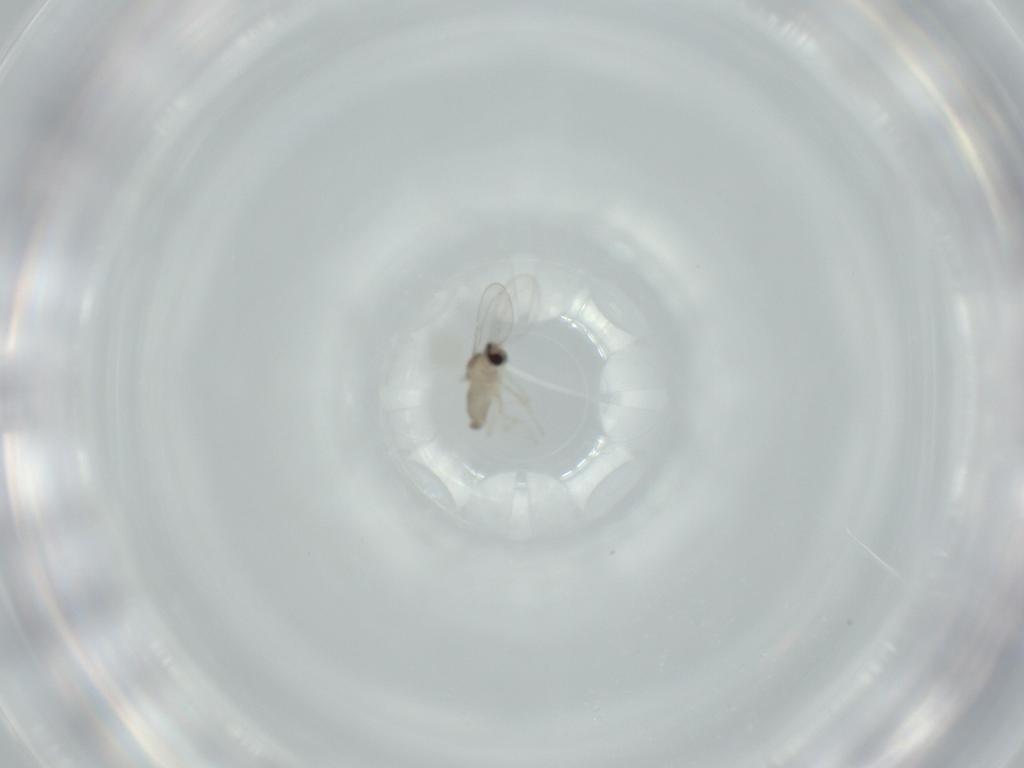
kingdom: Animalia
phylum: Arthropoda
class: Insecta
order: Diptera
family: Cecidomyiidae
